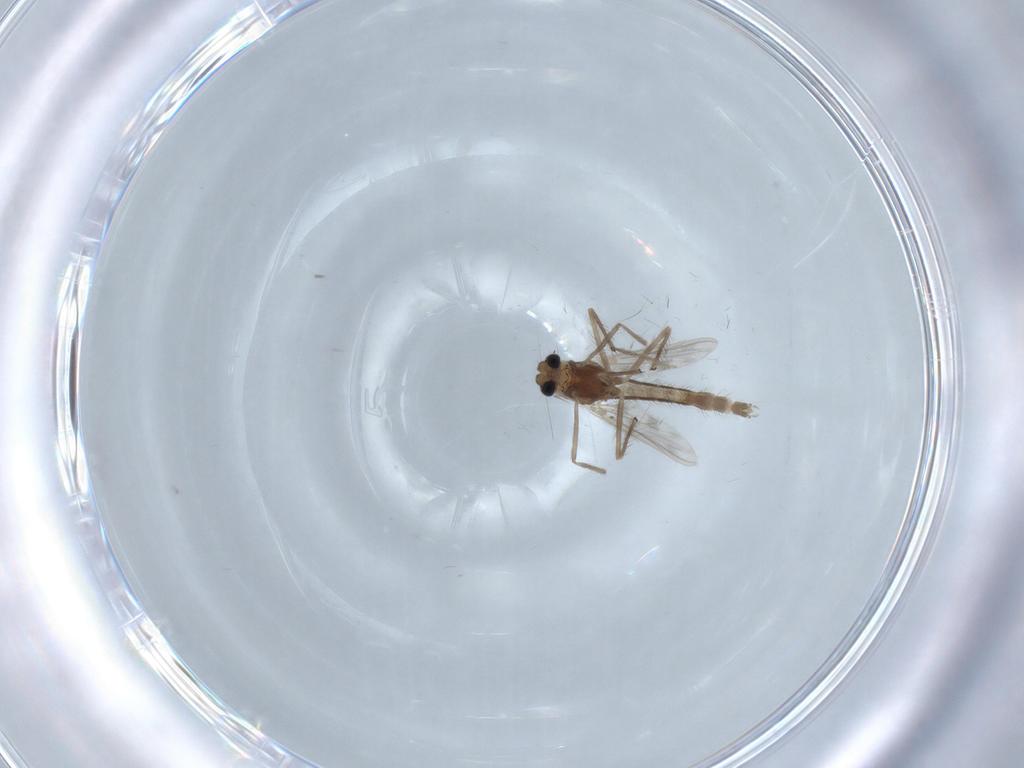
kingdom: Animalia
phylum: Arthropoda
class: Insecta
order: Diptera
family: Chironomidae
